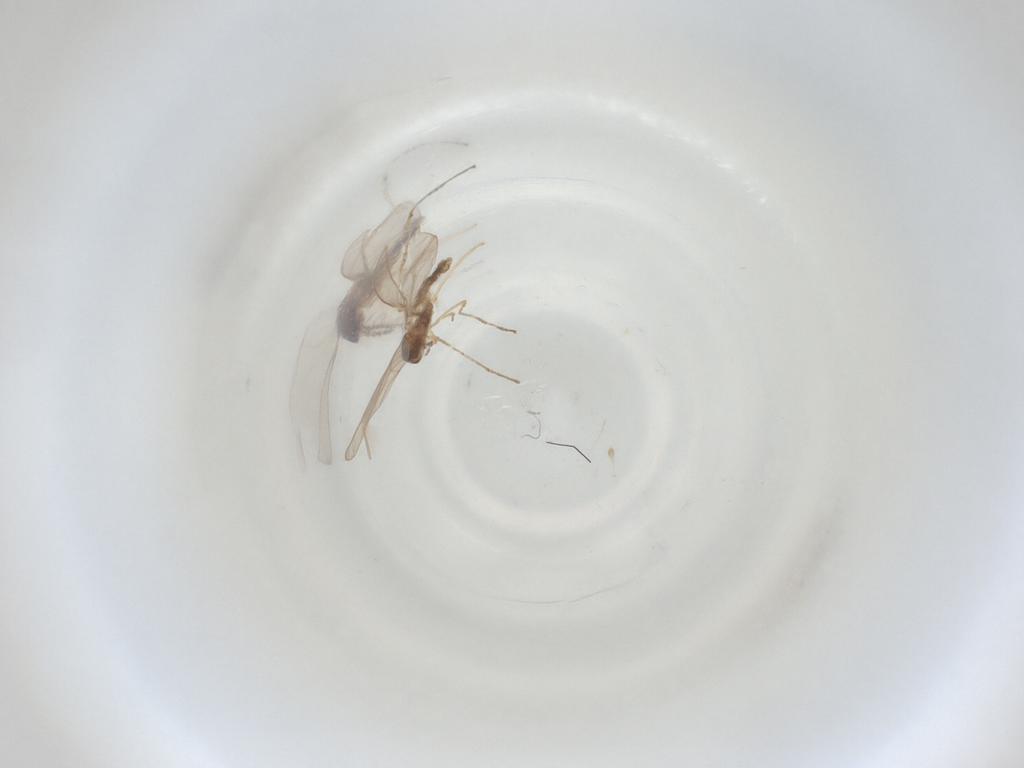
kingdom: Animalia
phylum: Arthropoda
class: Insecta
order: Diptera
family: Cecidomyiidae
